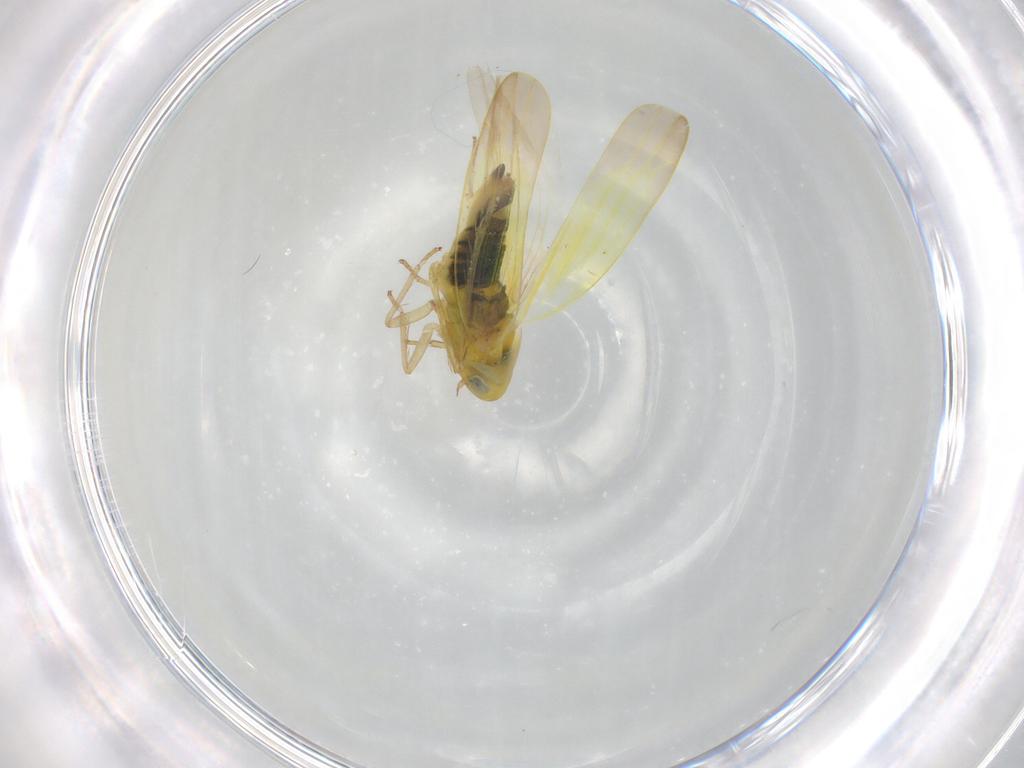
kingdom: Animalia
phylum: Arthropoda
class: Insecta
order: Hemiptera
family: Cicadellidae
